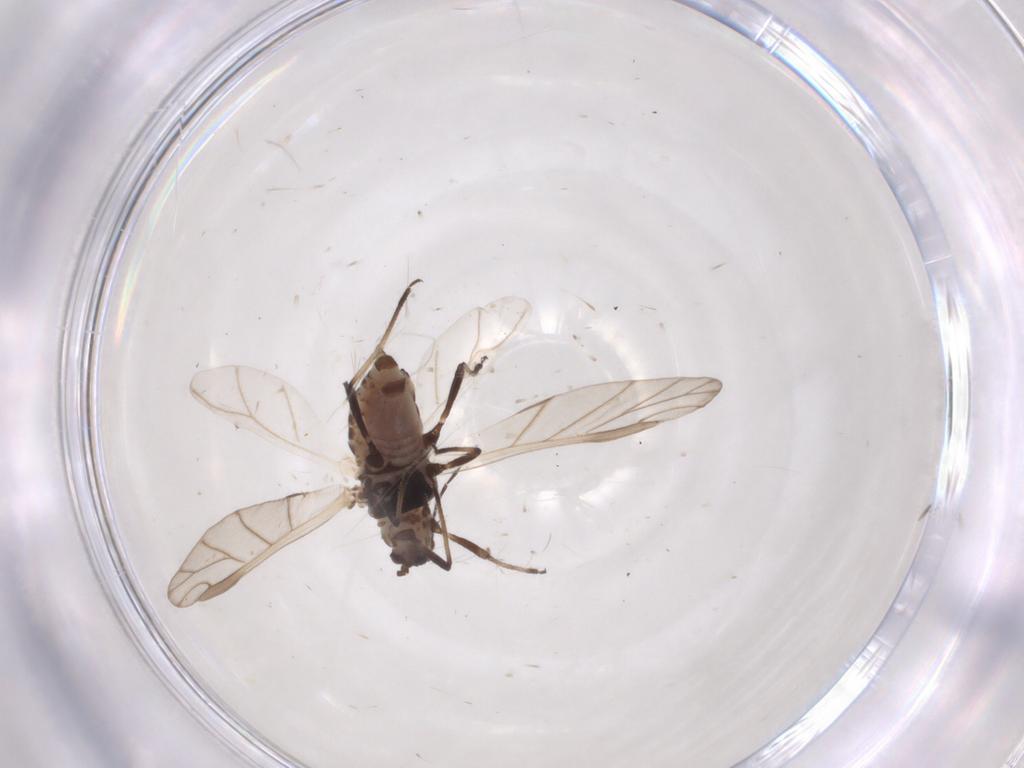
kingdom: Animalia
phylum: Arthropoda
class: Insecta
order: Hemiptera
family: Aphididae
